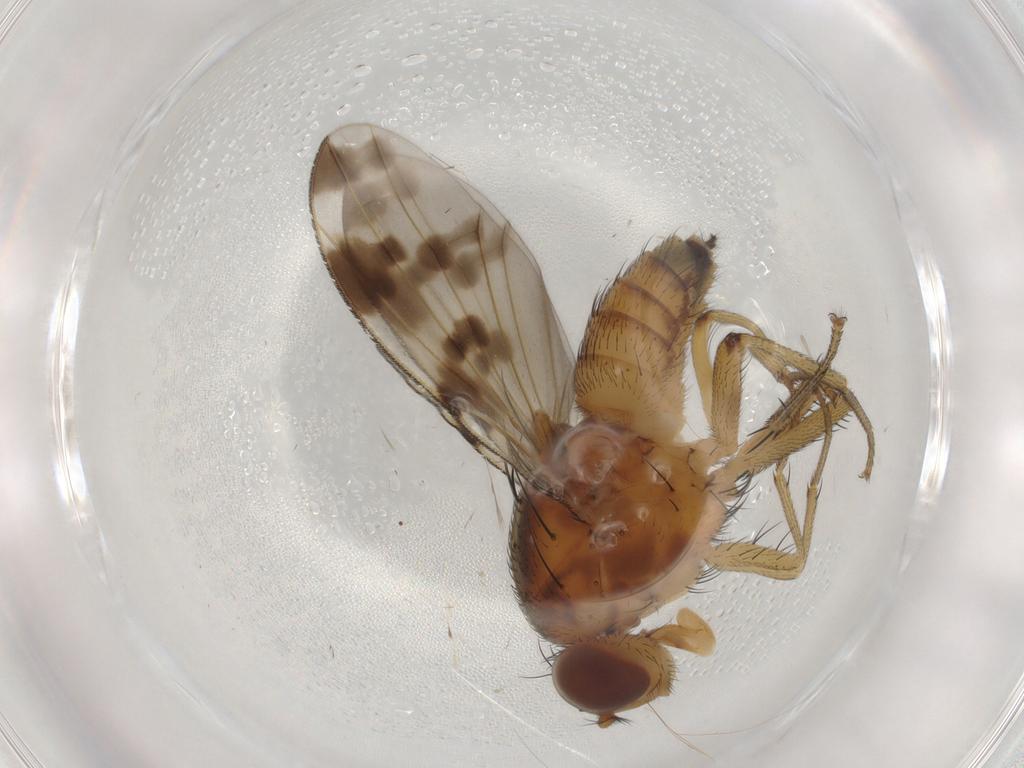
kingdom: Animalia
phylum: Arthropoda
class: Insecta
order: Diptera
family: Lauxaniidae
